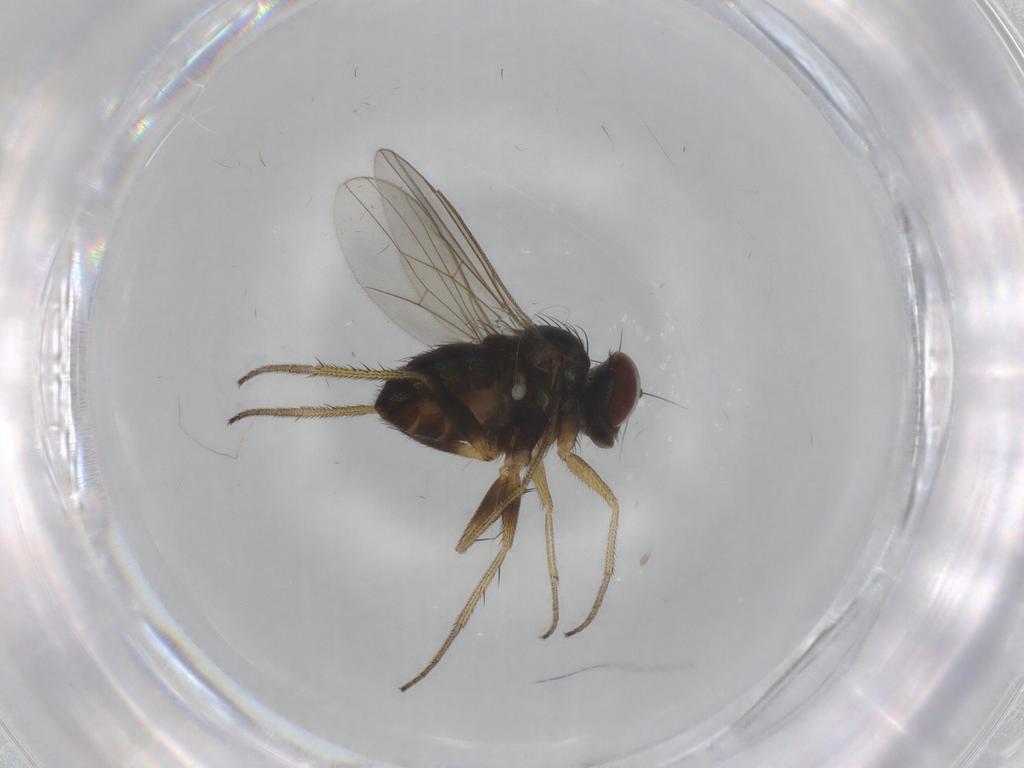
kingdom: Animalia
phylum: Arthropoda
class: Insecta
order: Diptera
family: Dolichopodidae
